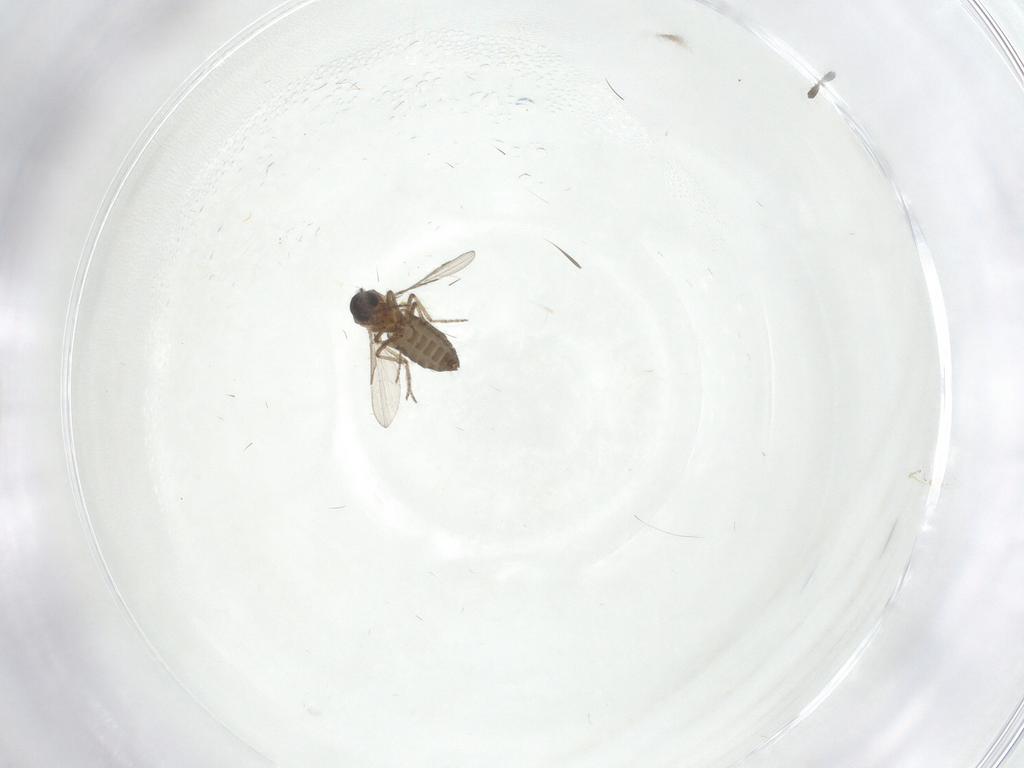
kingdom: Animalia
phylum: Arthropoda
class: Insecta
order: Diptera
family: Ceratopogonidae
